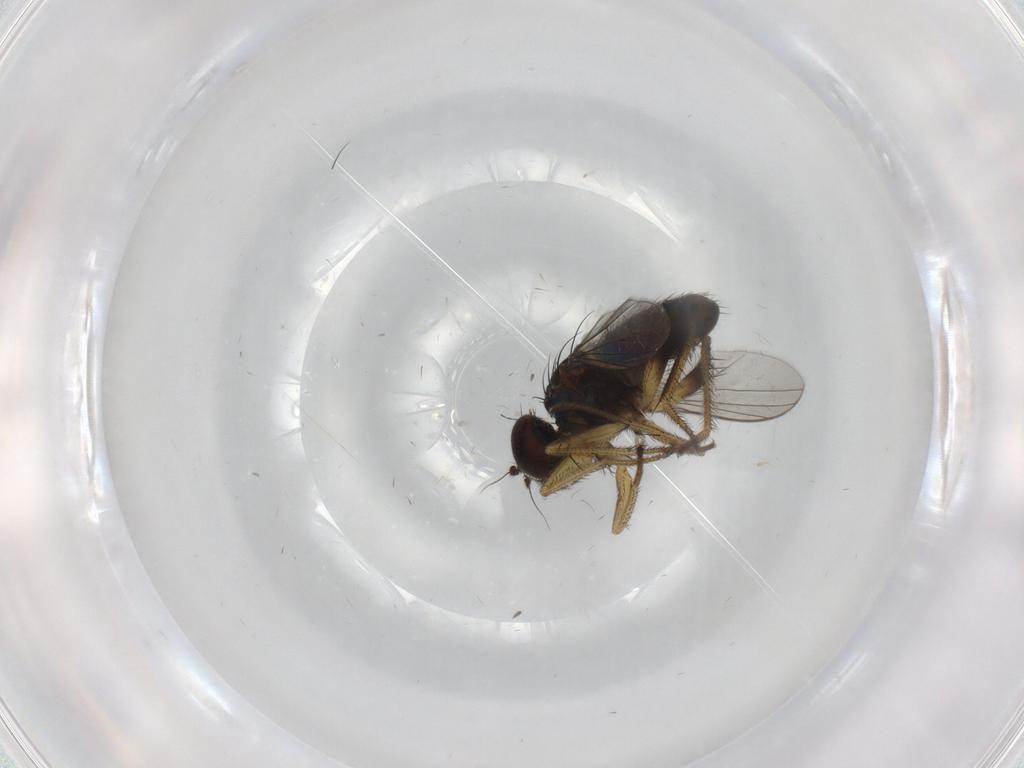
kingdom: Animalia
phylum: Arthropoda
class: Insecta
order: Diptera
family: Dolichopodidae
